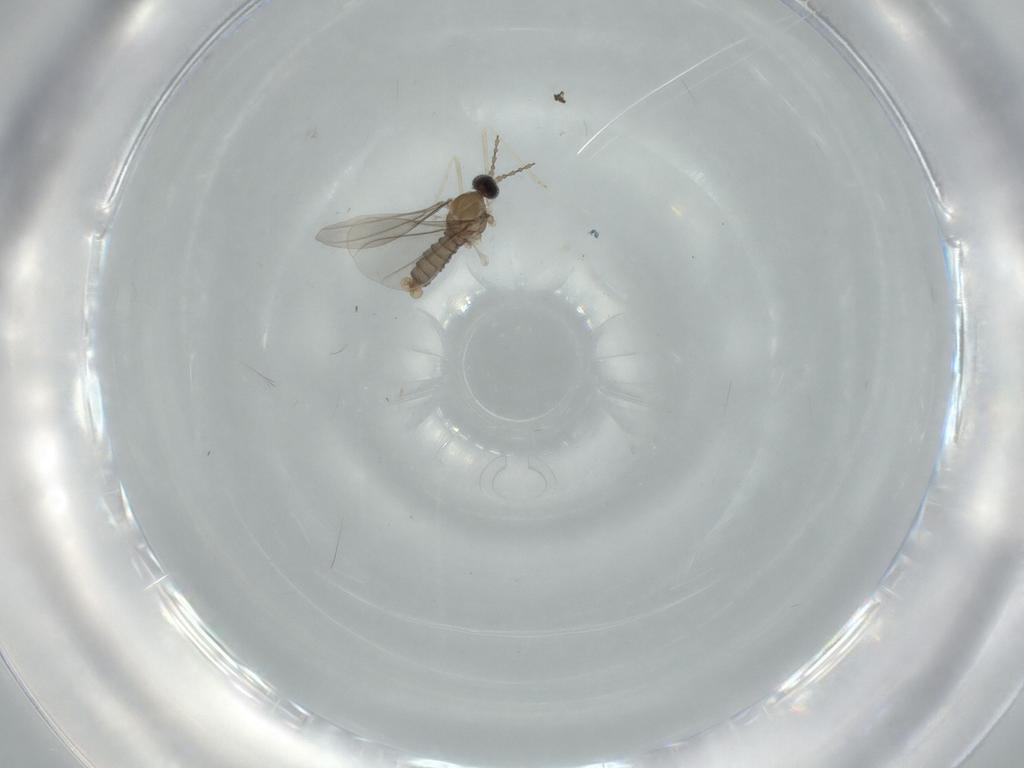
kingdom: Animalia
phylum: Arthropoda
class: Insecta
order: Diptera
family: Cecidomyiidae
